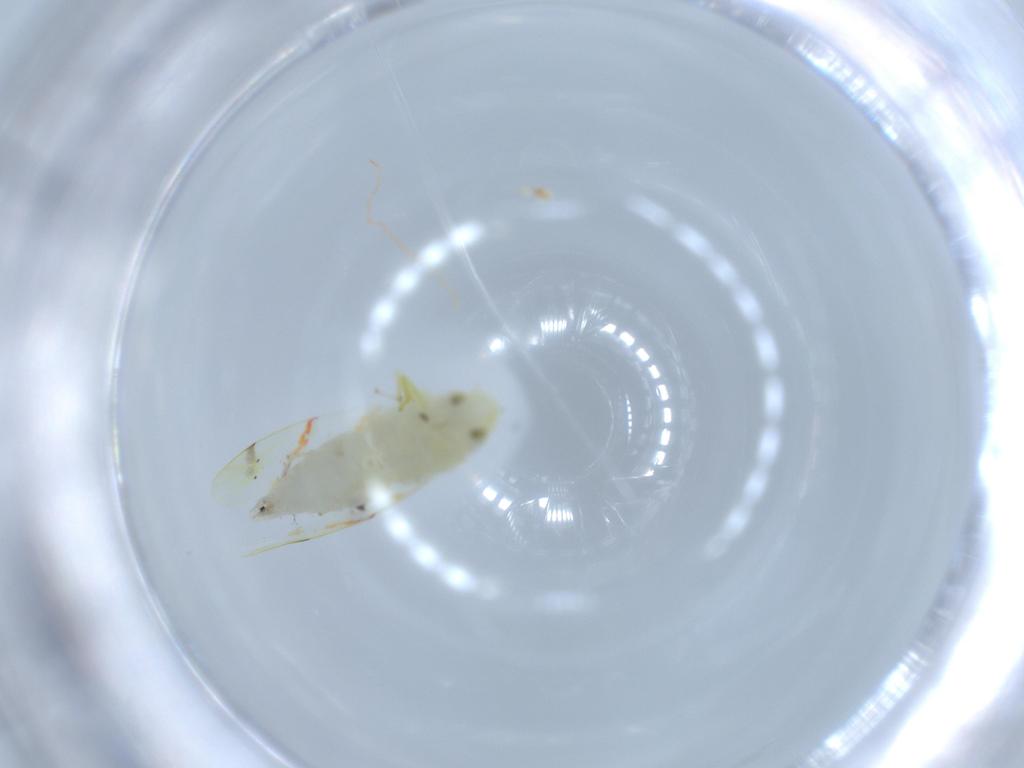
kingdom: Animalia
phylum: Arthropoda
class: Insecta
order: Hemiptera
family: Cicadellidae
